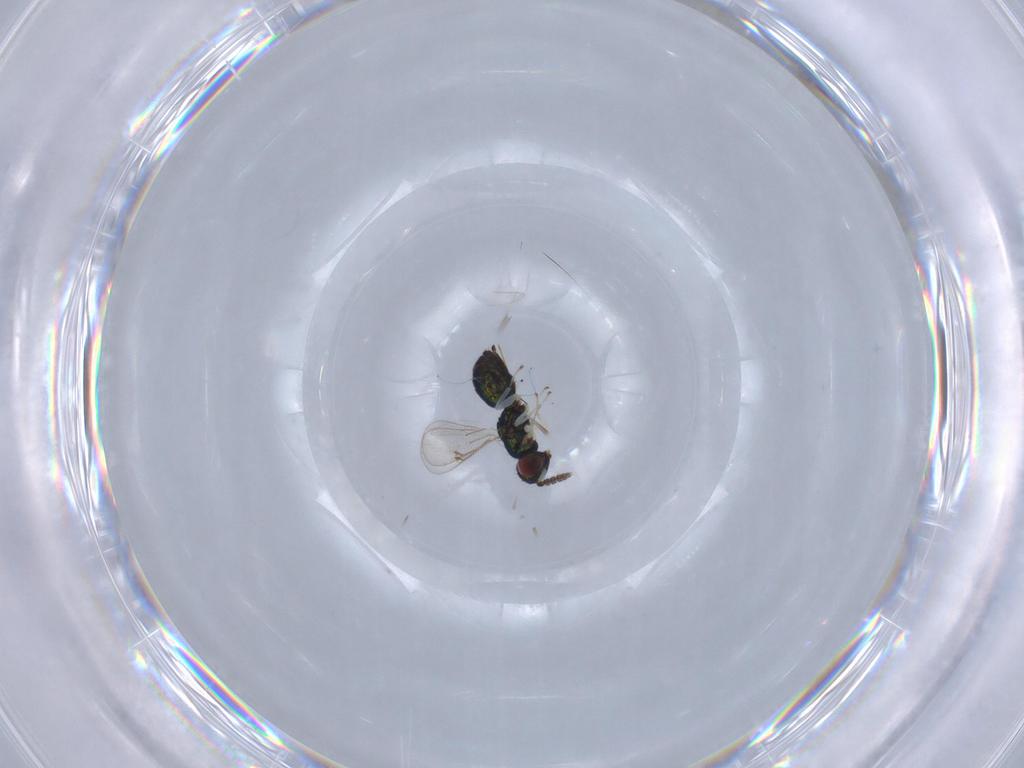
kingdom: Animalia
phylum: Arthropoda
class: Insecta
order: Hymenoptera
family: Eulophidae
